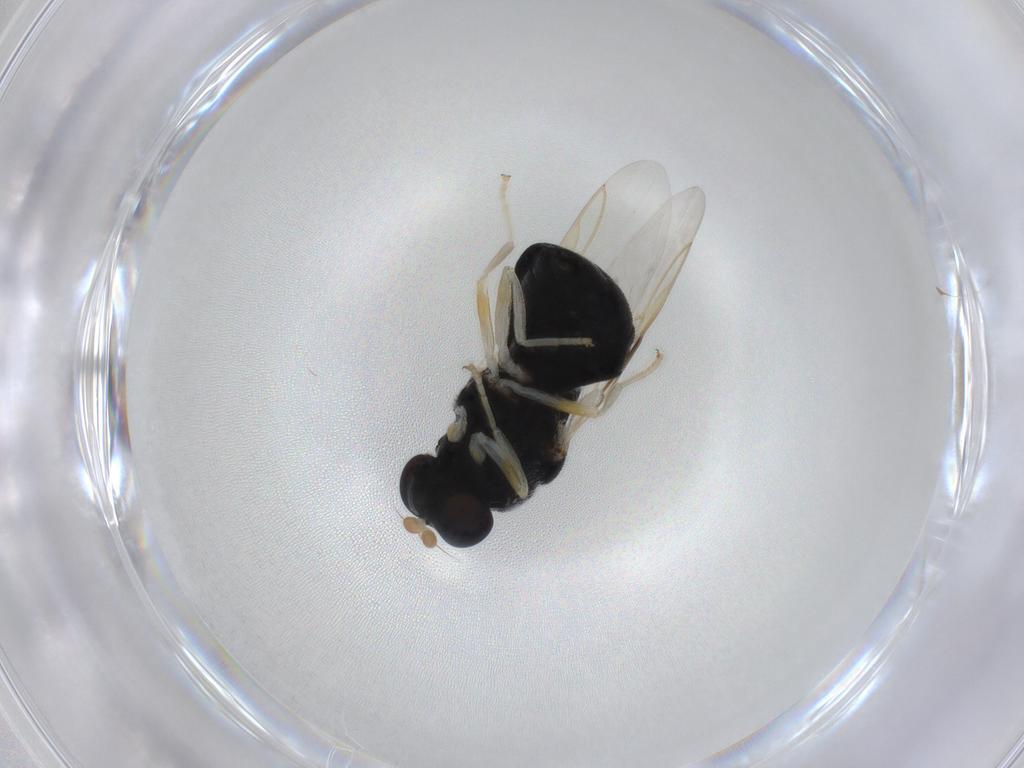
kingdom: Animalia
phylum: Arthropoda
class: Insecta
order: Diptera
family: Stratiomyidae
